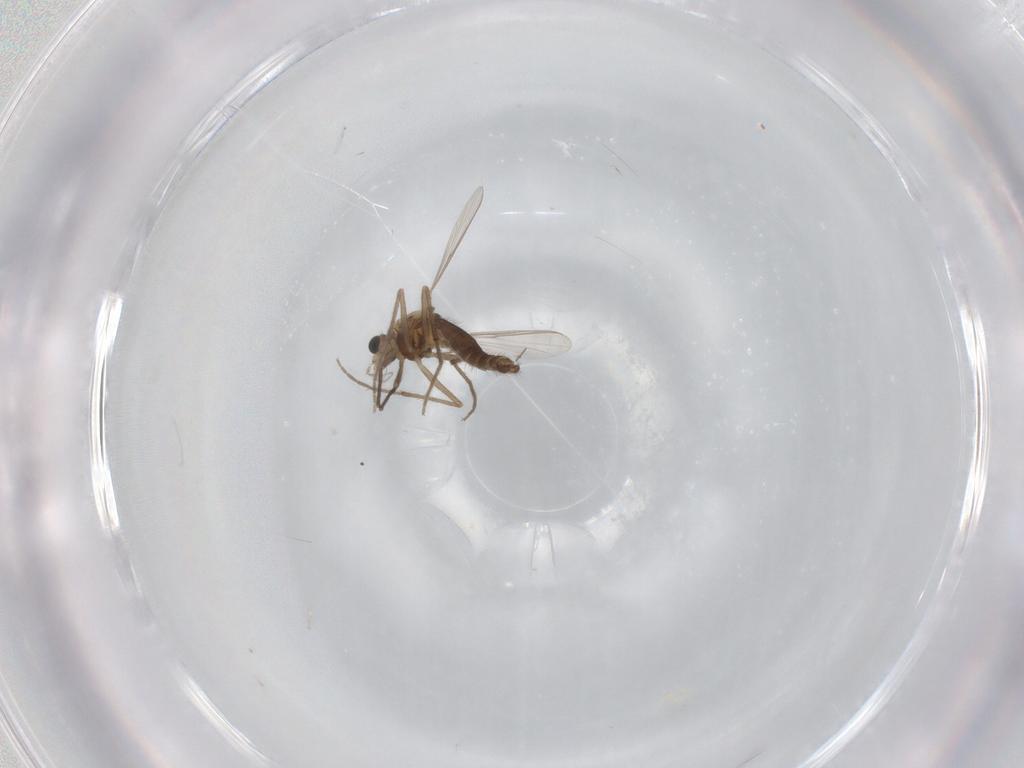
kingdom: Animalia
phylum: Arthropoda
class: Insecta
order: Diptera
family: Chironomidae
